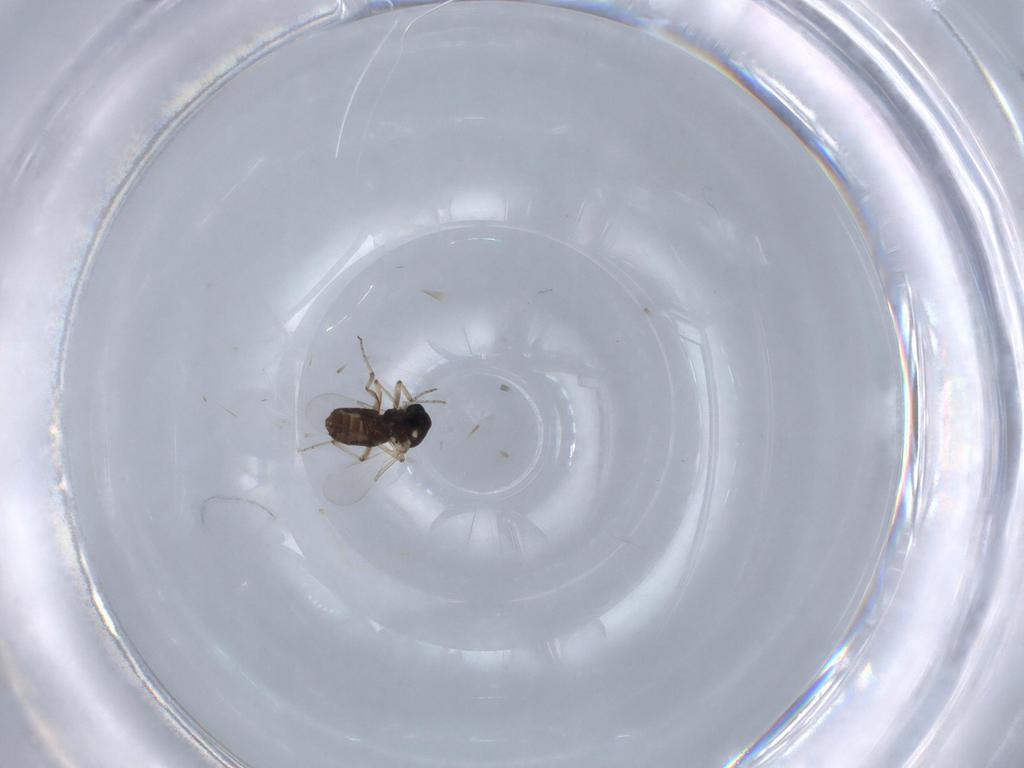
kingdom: Animalia
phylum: Arthropoda
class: Insecta
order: Diptera
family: Ceratopogonidae
